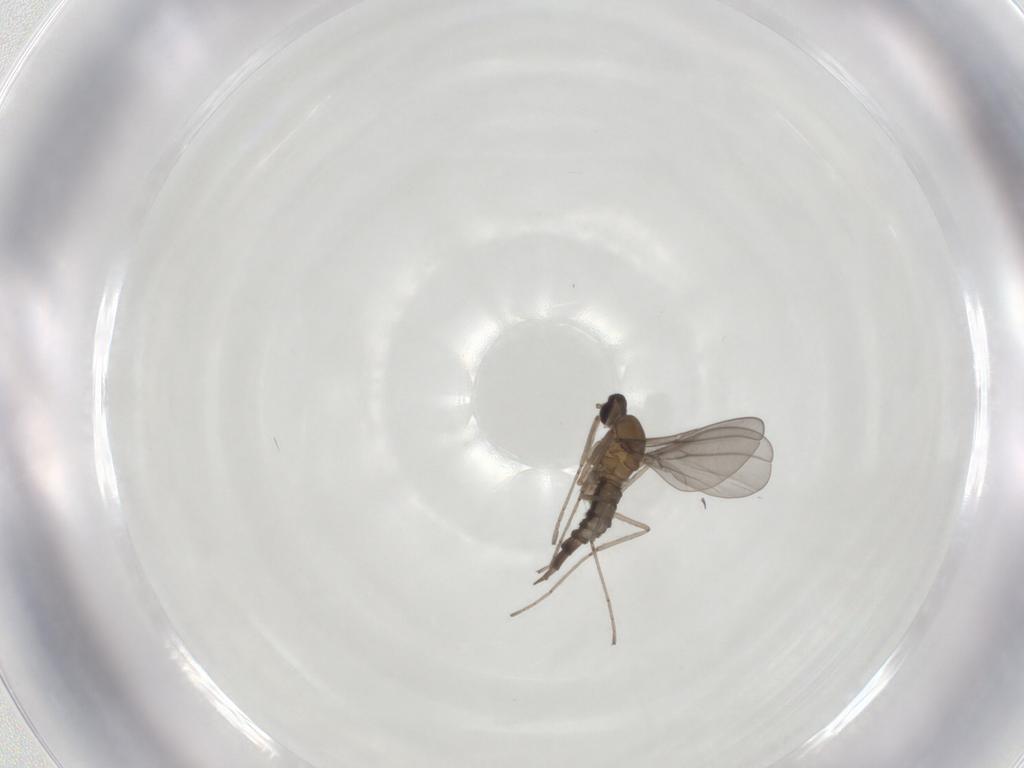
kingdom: Animalia
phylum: Arthropoda
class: Insecta
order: Diptera
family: Cecidomyiidae
